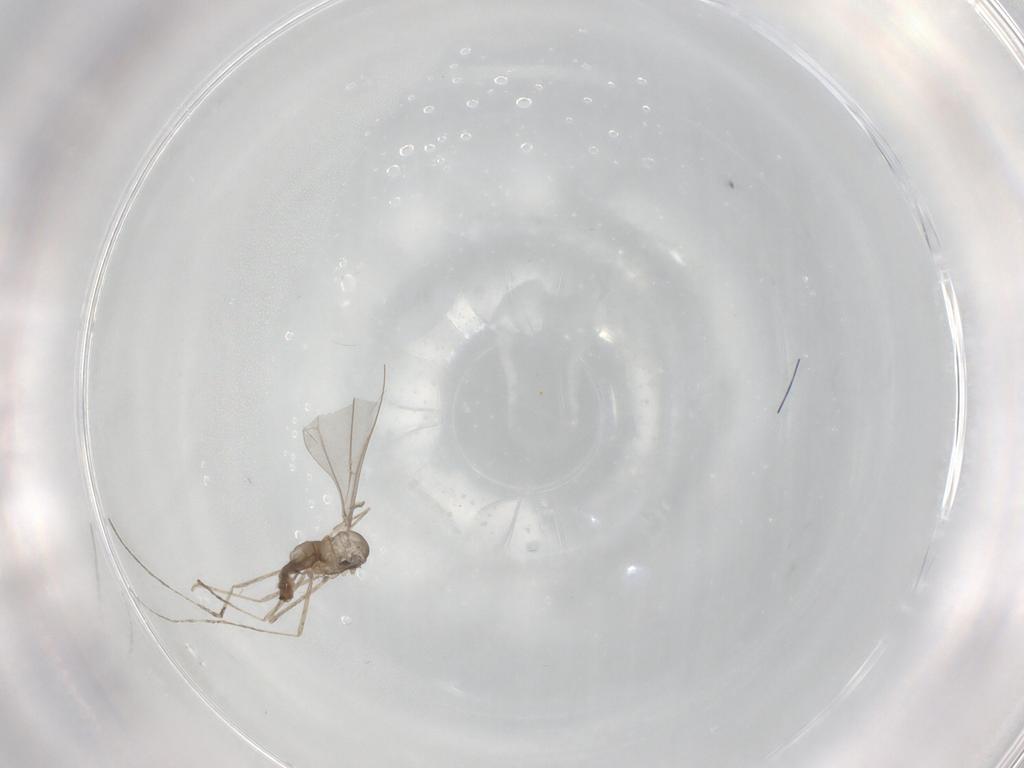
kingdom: Animalia
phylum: Arthropoda
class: Insecta
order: Diptera
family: Cecidomyiidae
